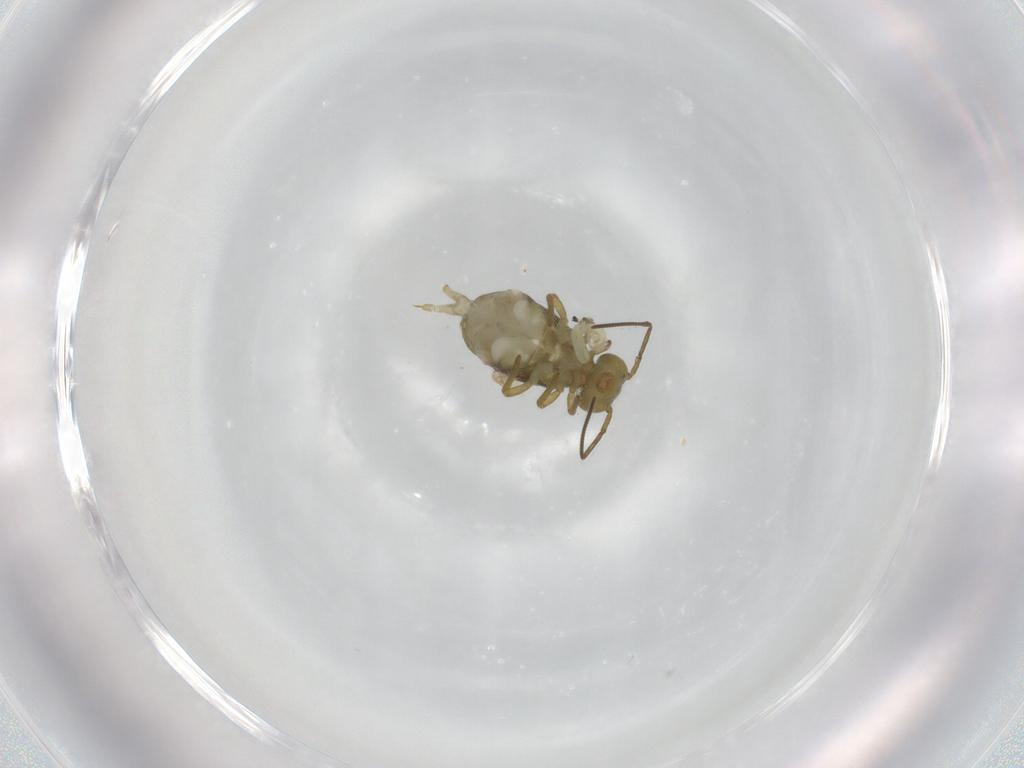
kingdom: Animalia
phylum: Arthropoda
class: Collembola
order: Symphypleona
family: Sminthuridae
